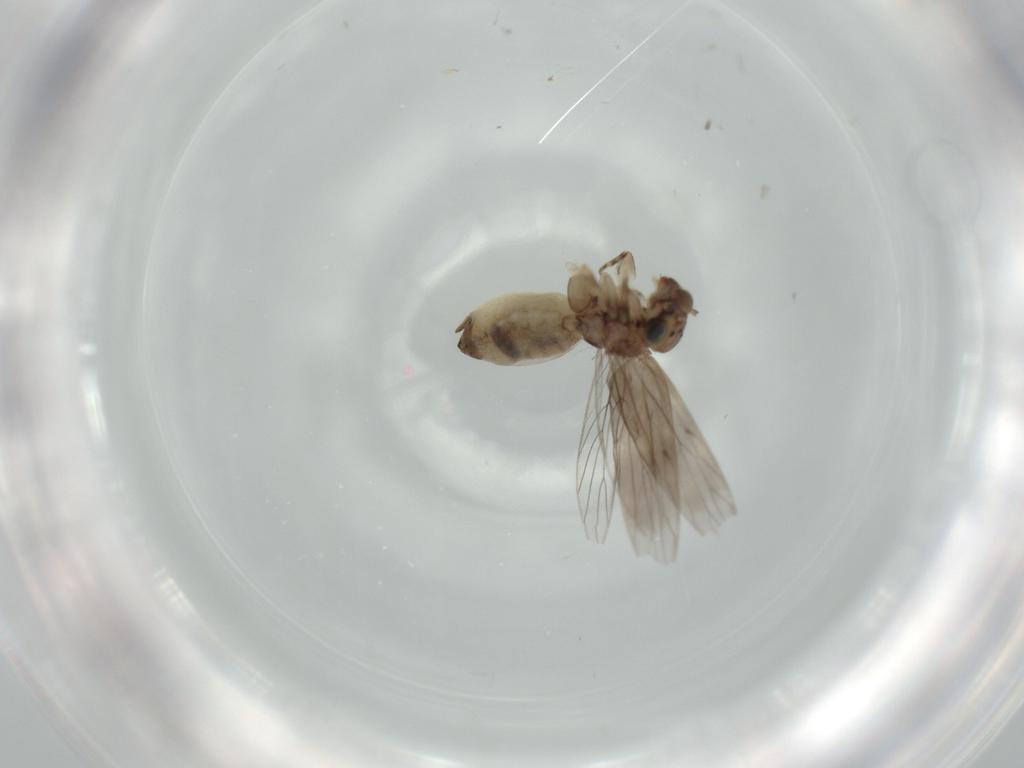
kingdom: Animalia
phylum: Arthropoda
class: Insecta
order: Psocodea
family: Lepidopsocidae
